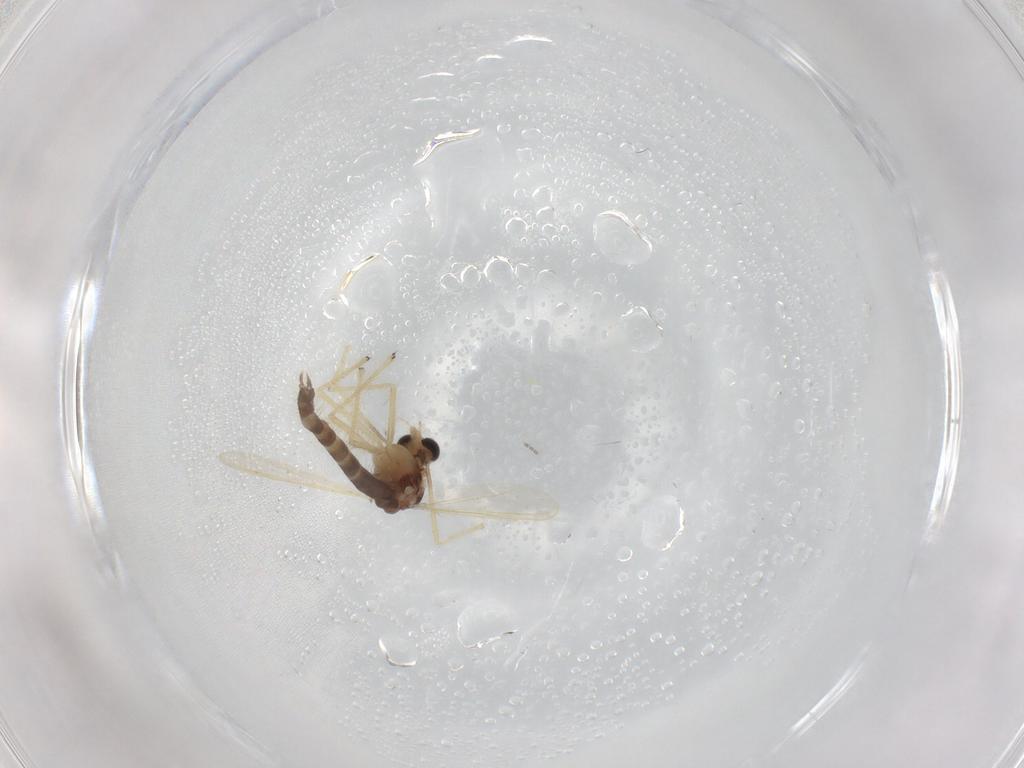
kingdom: Animalia
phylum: Arthropoda
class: Insecta
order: Diptera
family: Chironomidae
